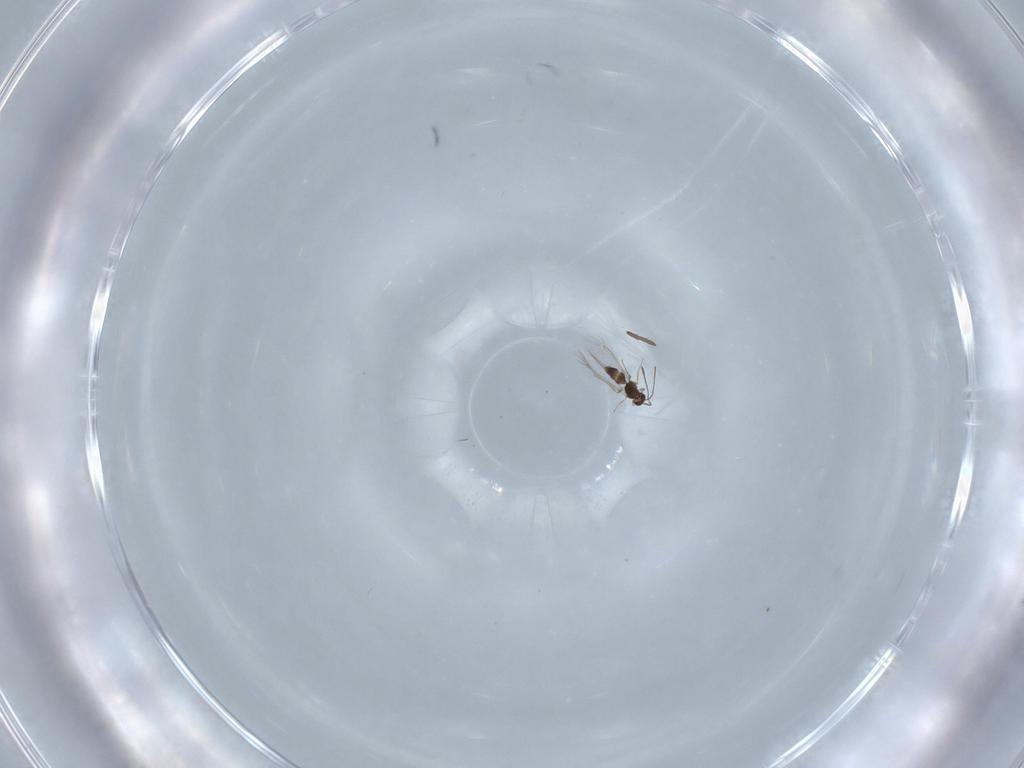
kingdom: Animalia
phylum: Arthropoda
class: Insecta
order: Hymenoptera
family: Mymaridae
